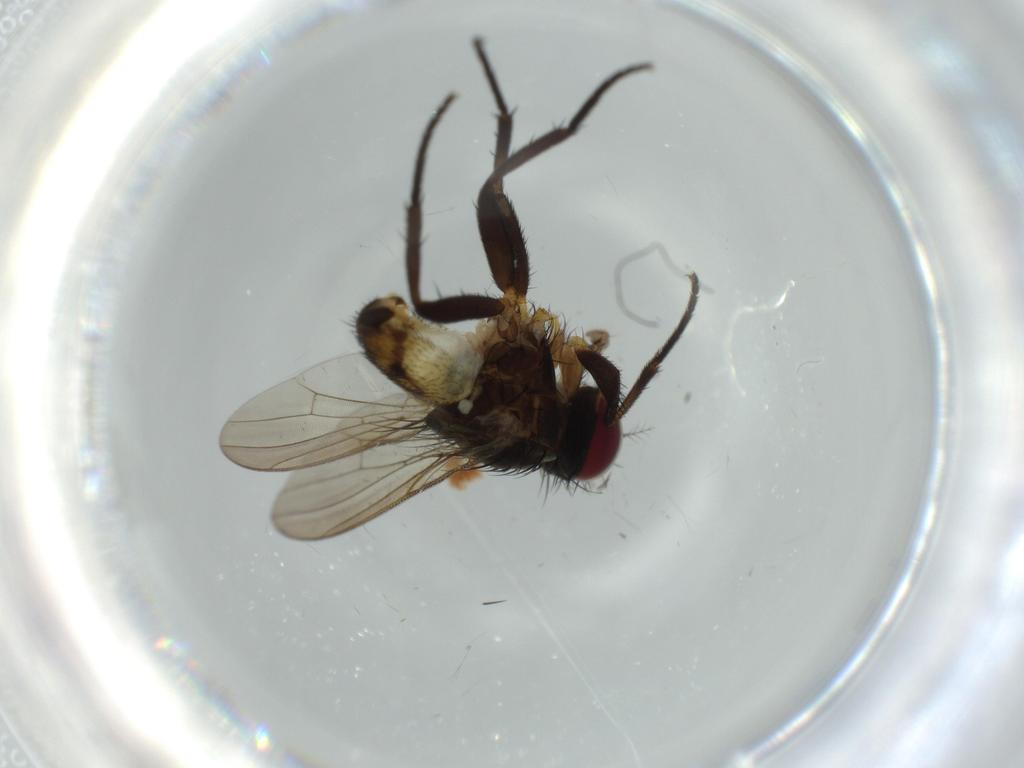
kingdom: Animalia
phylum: Arthropoda
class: Insecta
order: Diptera
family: Anthomyiidae
